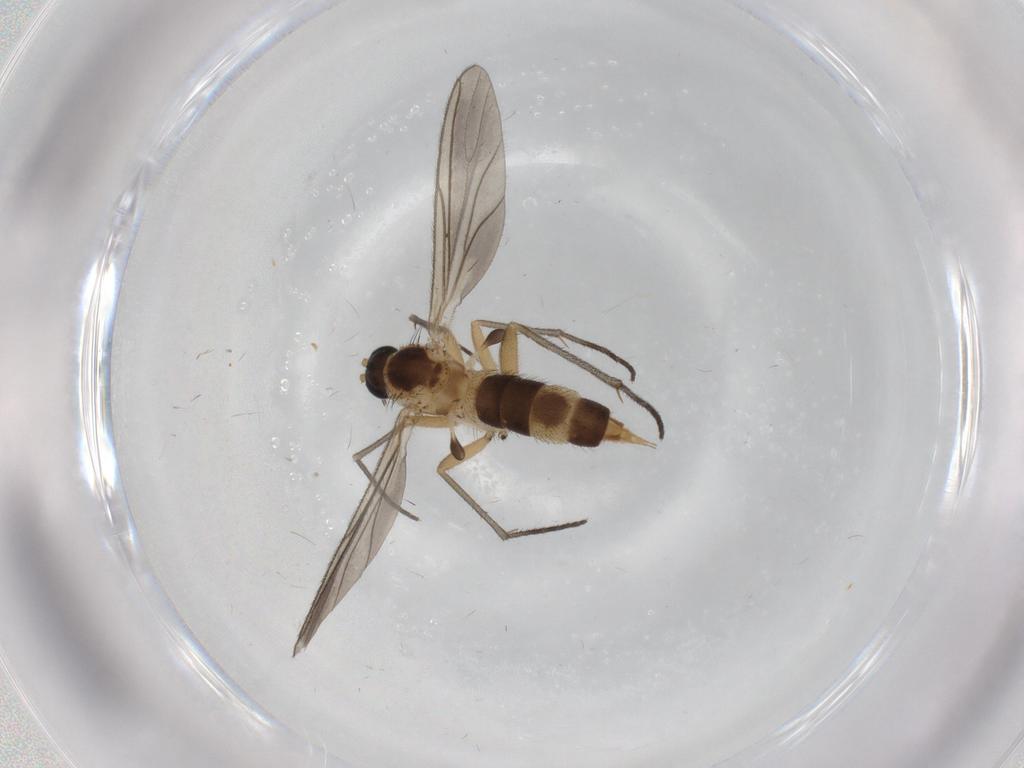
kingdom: Animalia
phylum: Arthropoda
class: Insecta
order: Diptera
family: Sciaridae
